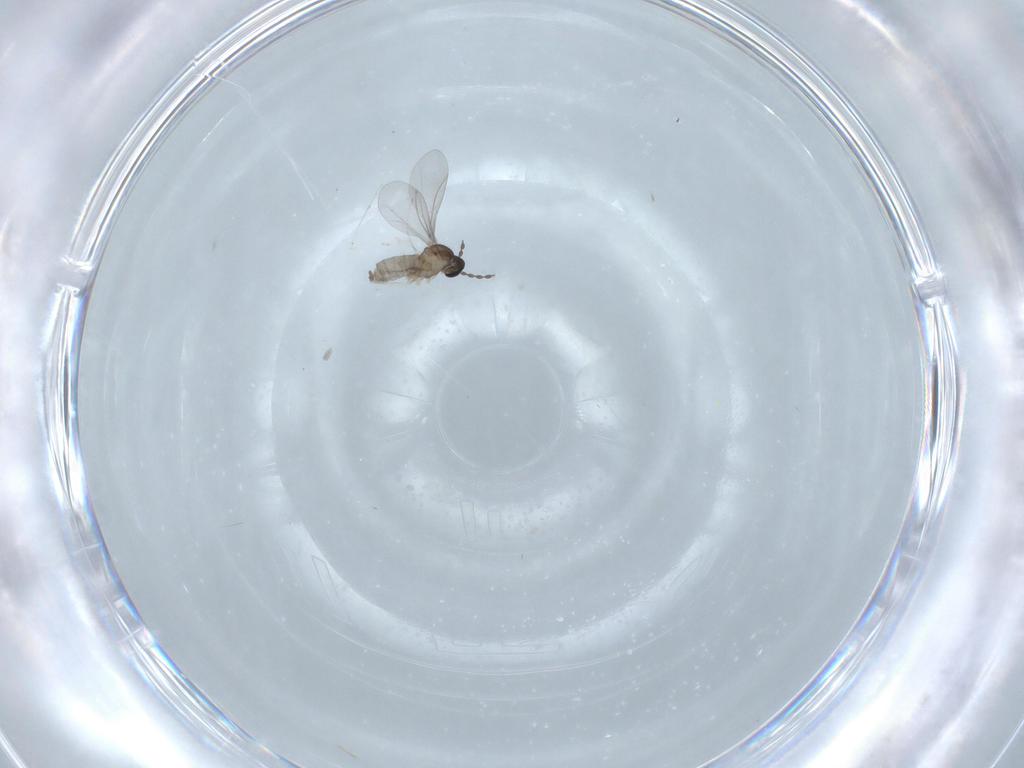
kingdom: Animalia
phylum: Arthropoda
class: Insecta
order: Diptera
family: Cecidomyiidae
